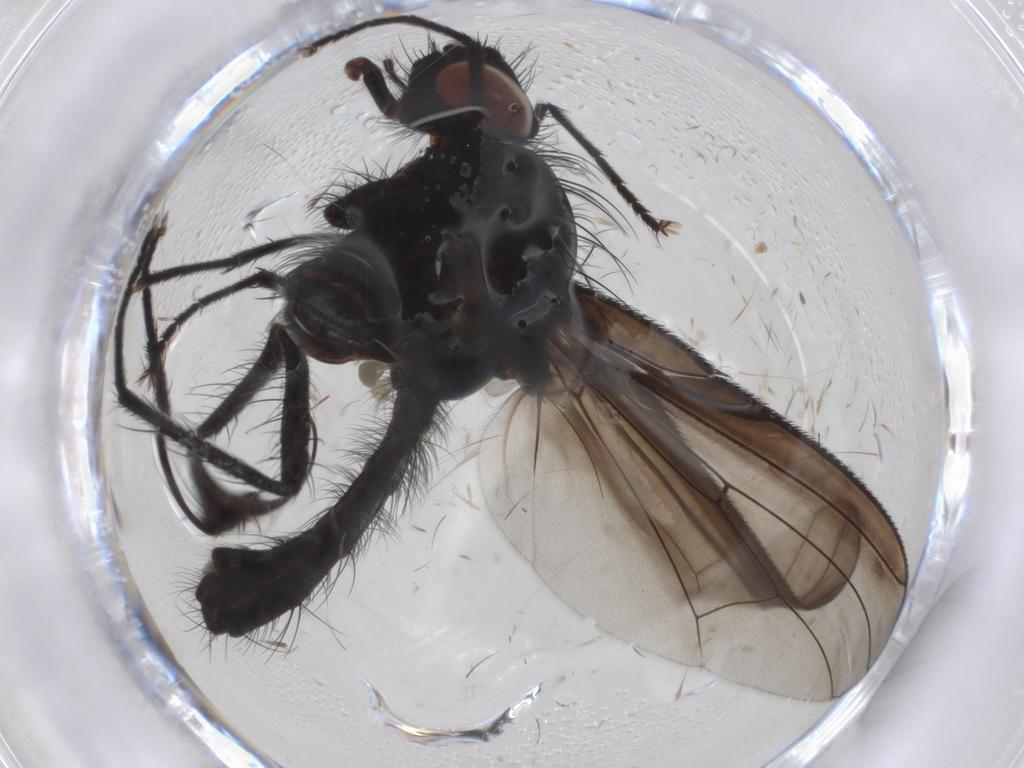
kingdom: Animalia
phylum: Arthropoda
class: Insecta
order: Diptera
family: Anthomyiidae
